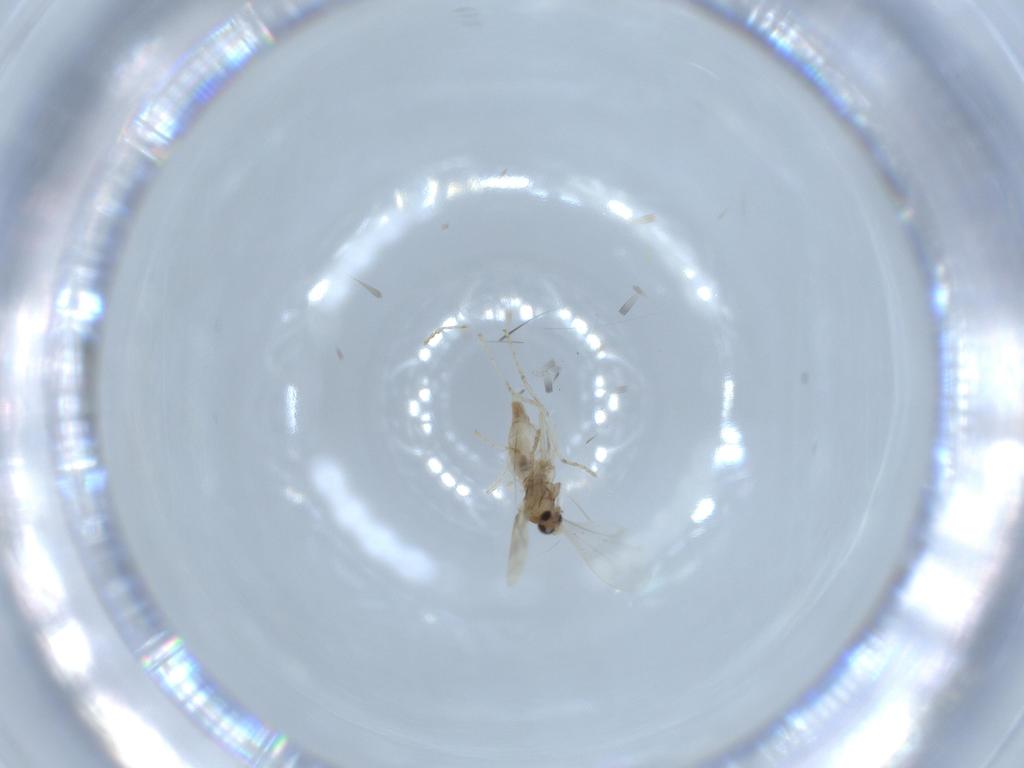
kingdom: Animalia
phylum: Arthropoda
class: Insecta
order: Diptera
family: Cecidomyiidae
